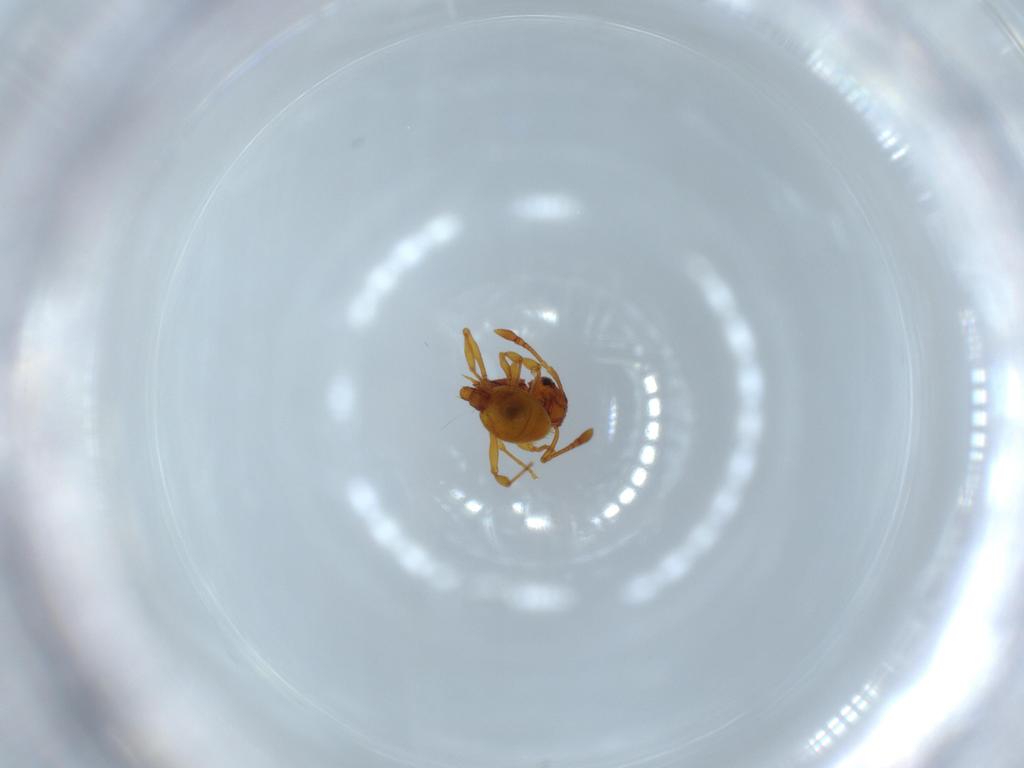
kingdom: Animalia
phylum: Arthropoda
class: Insecta
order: Hymenoptera
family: Formicidae
